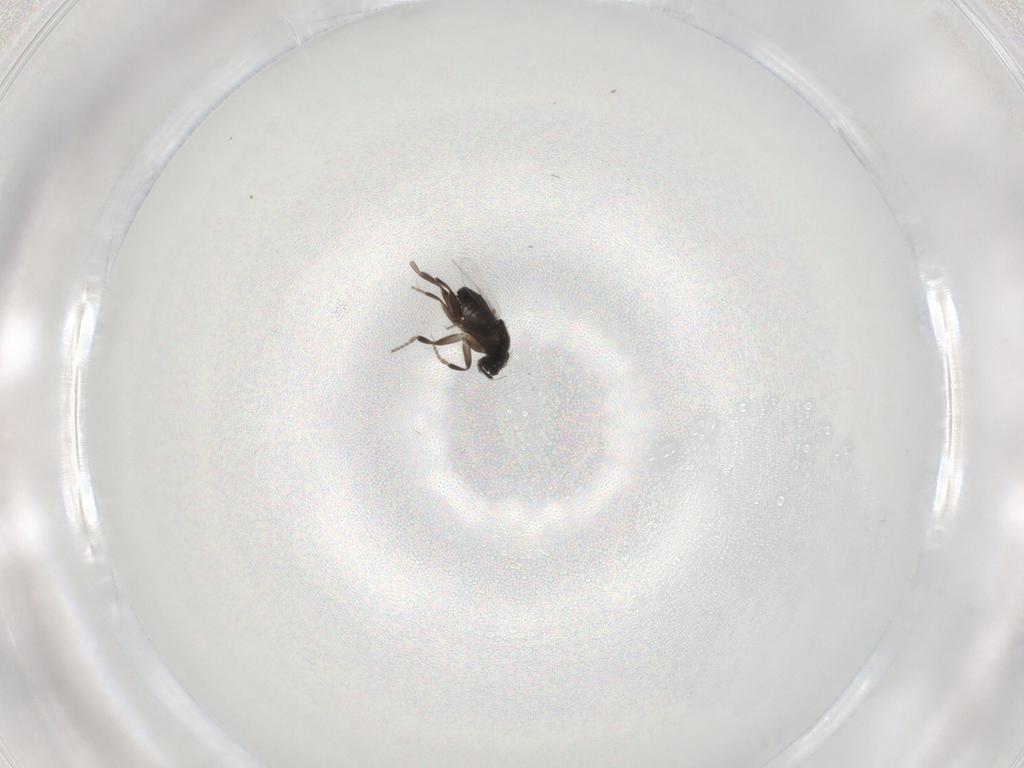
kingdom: Animalia
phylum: Arthropoda
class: Insecta
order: Diptera
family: Phoridae
